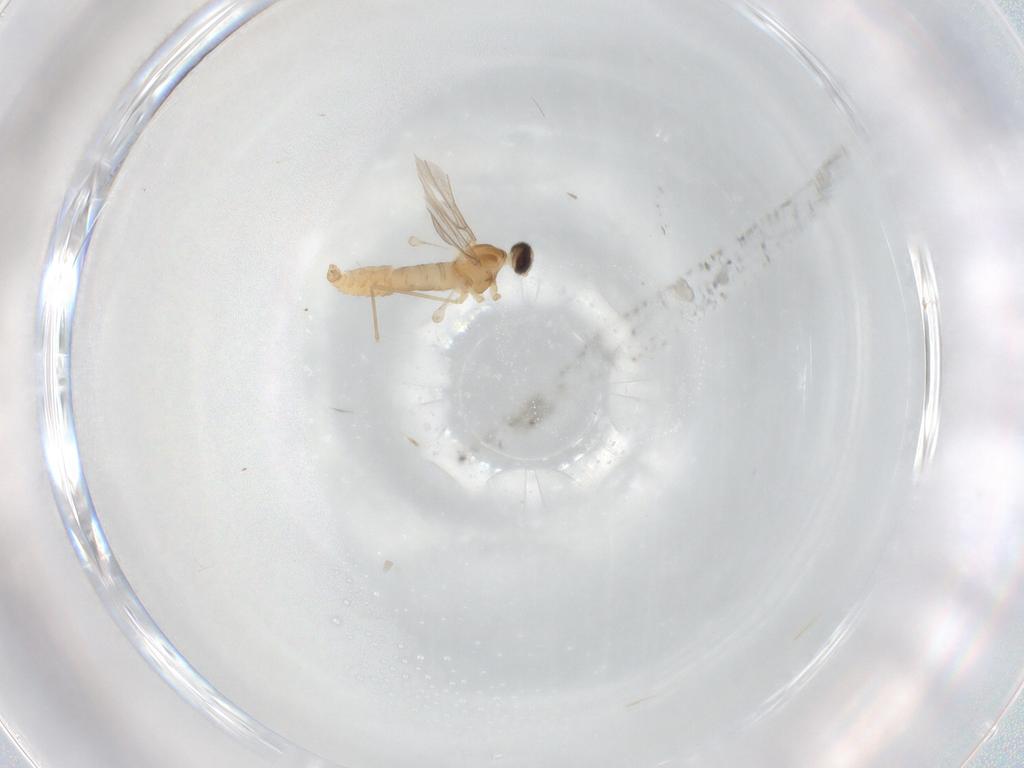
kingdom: Animalia
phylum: Arthropoda
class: Insecta
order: Diptera
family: Cecidomyiidae
